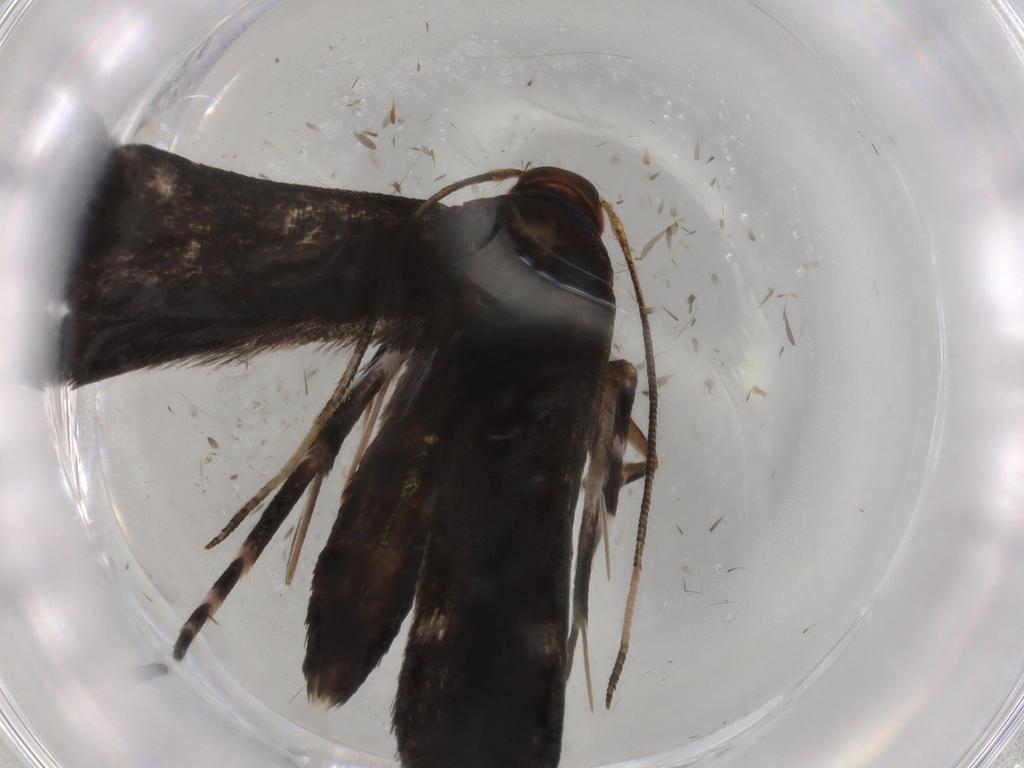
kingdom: Animalia
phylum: Arthropoda
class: Insecta
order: Lepidoptera
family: Gelechiidae
